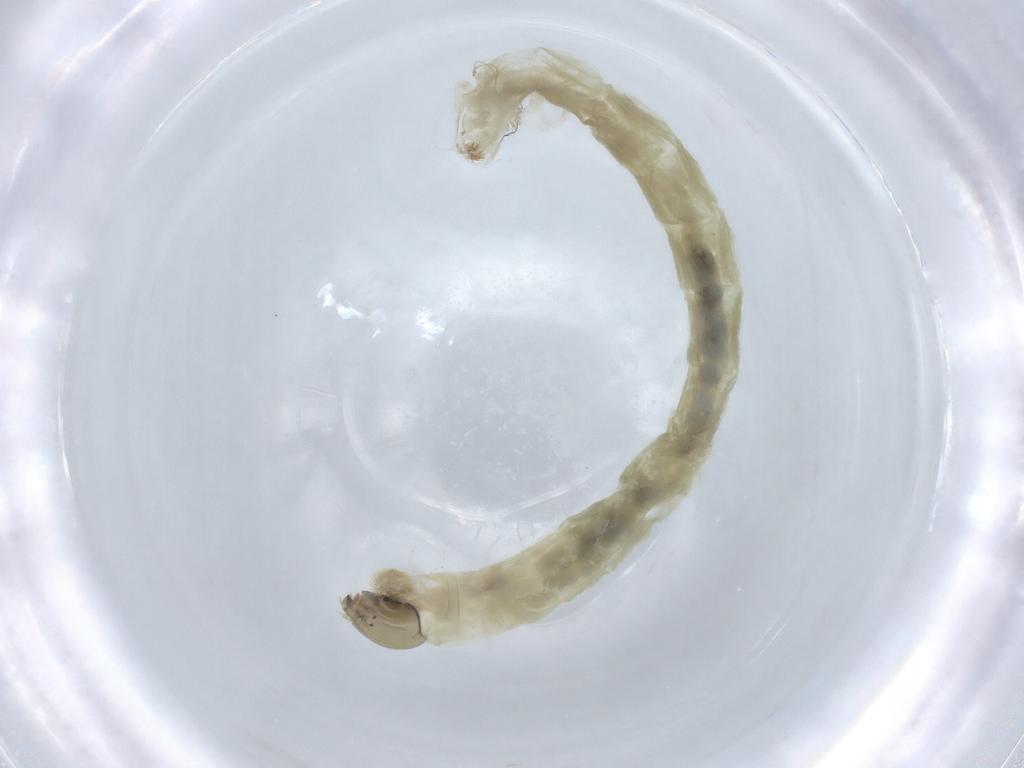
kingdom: Animalia
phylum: Arthropoda
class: Insecta
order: Diptera
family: Chironomidae
